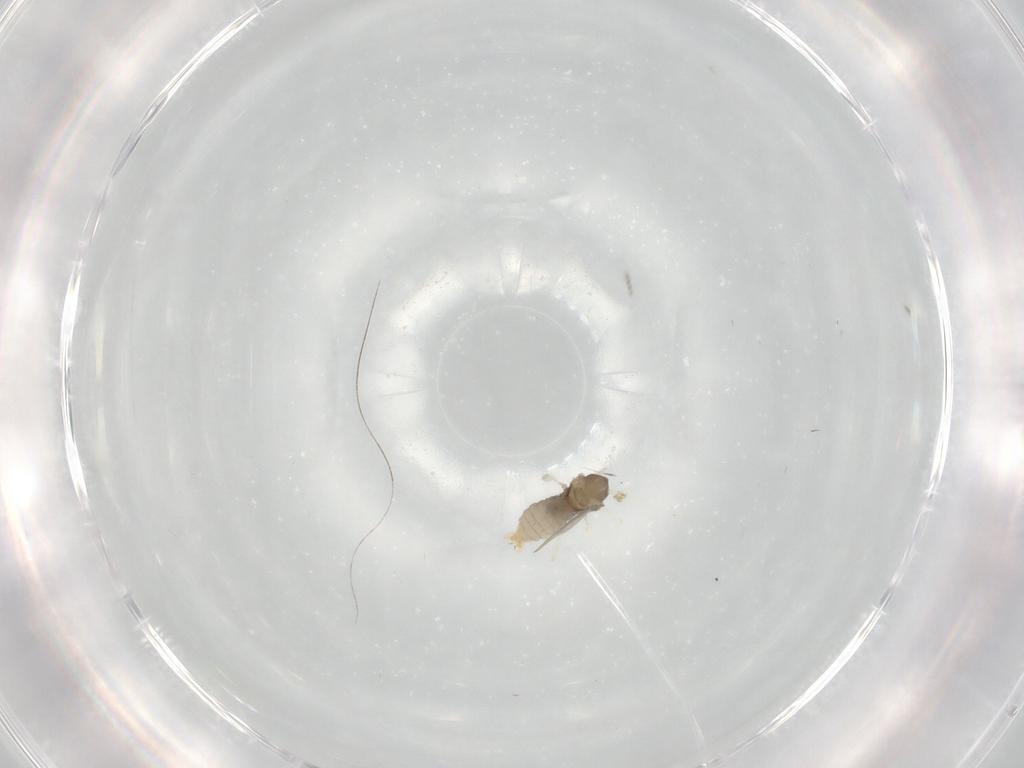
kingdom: Animalia
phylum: Arthropoda
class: Insecta
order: Diptera
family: Cecidomyiidae
